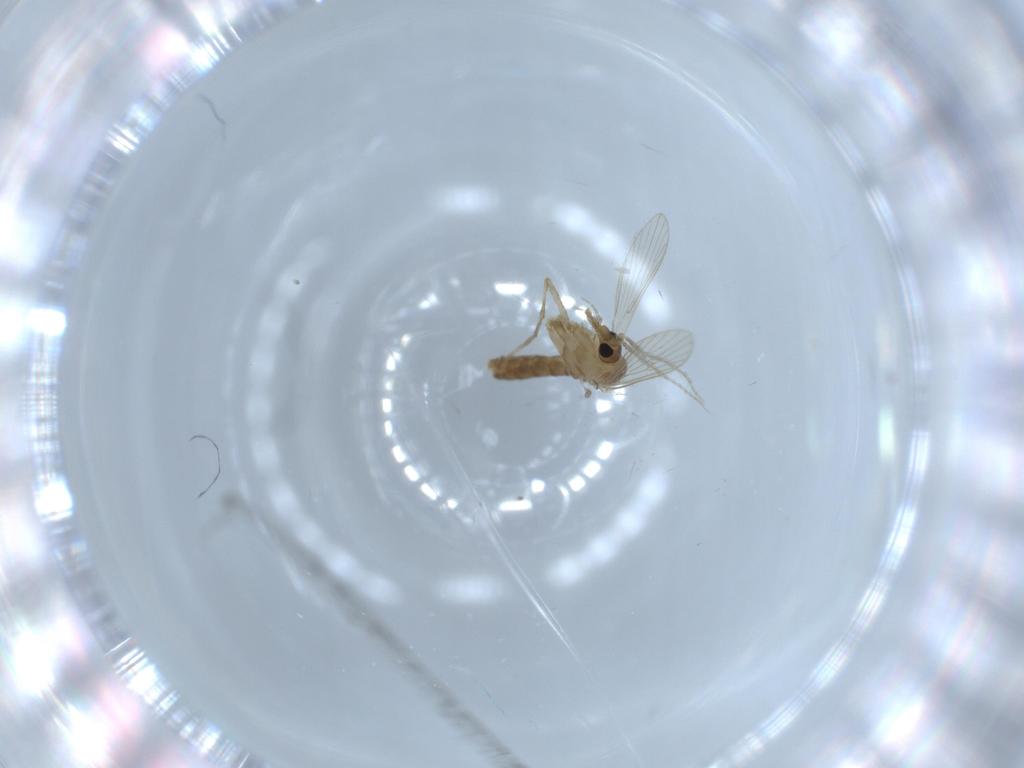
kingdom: Animalia
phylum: Arthropoda
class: Insecta
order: Diptera
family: Psychodidae
